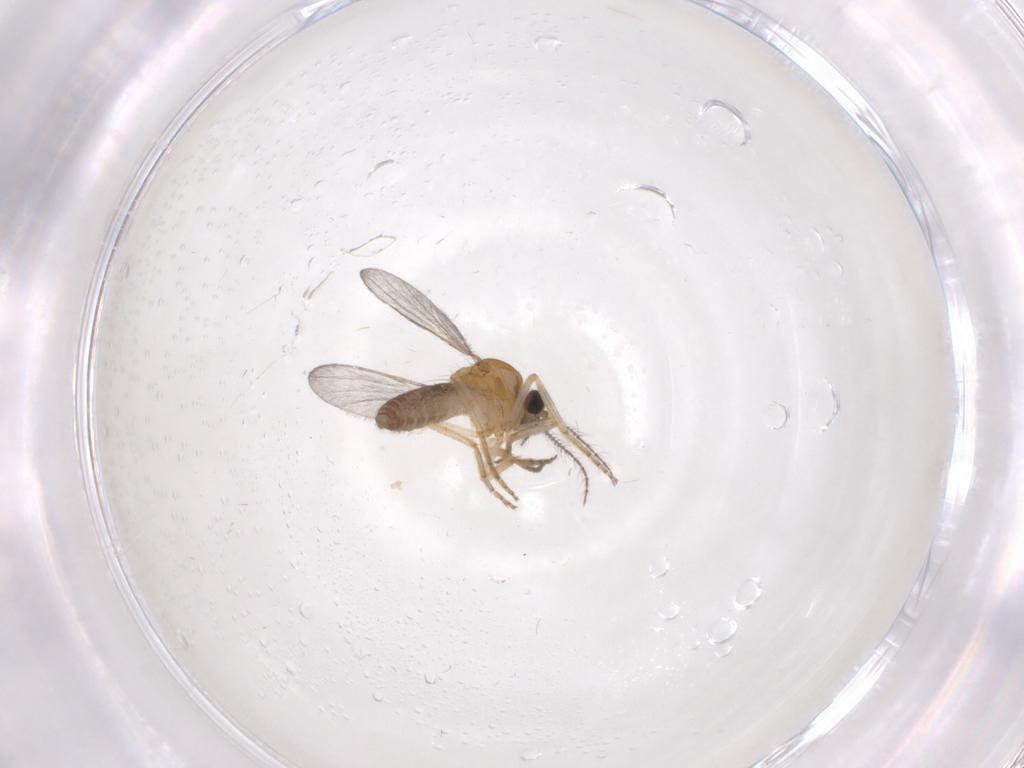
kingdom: Animalia
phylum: Arthropoda
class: Insecta
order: Diptera
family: Ceratopogonidae
